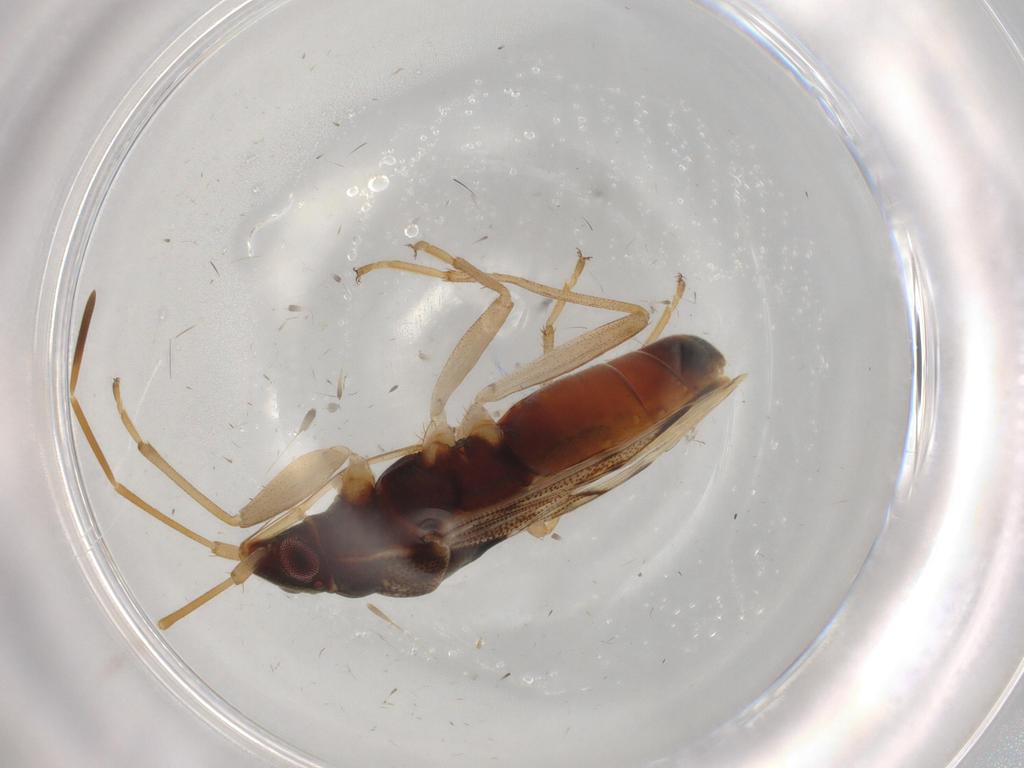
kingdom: Animalia
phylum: Arthropoda
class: Insecta
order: Hemiptera
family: Rhyparochromidae
